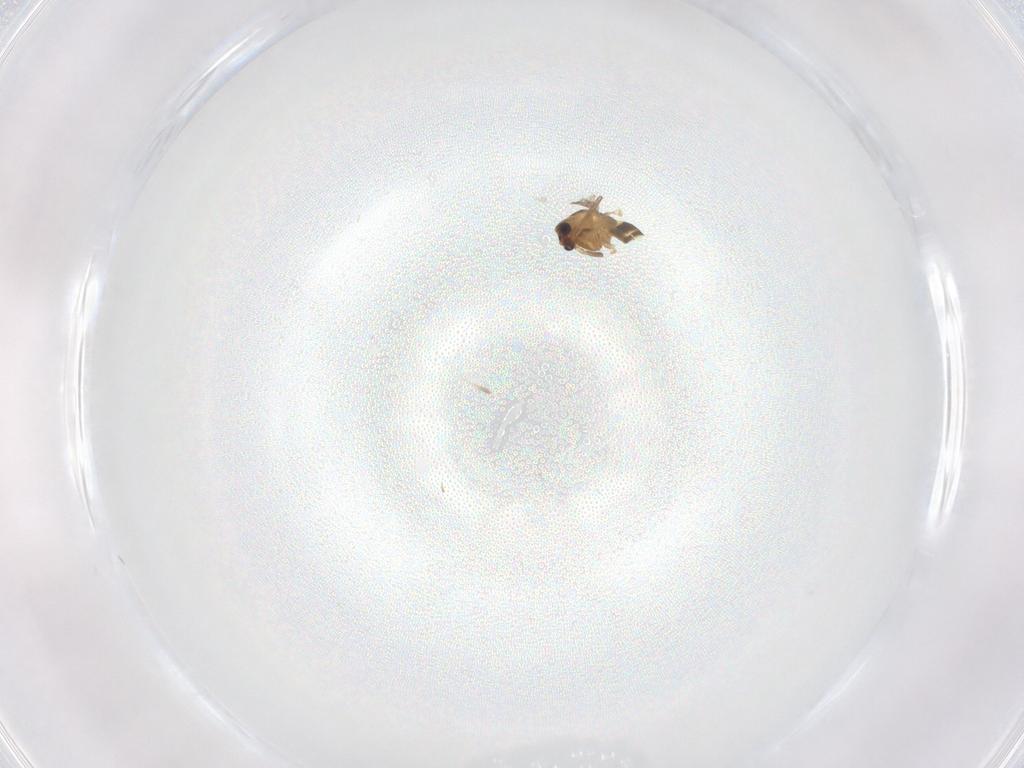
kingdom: Animalia
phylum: Arthropoda
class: Insecta
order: Diptera
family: Cecidomyiidae
